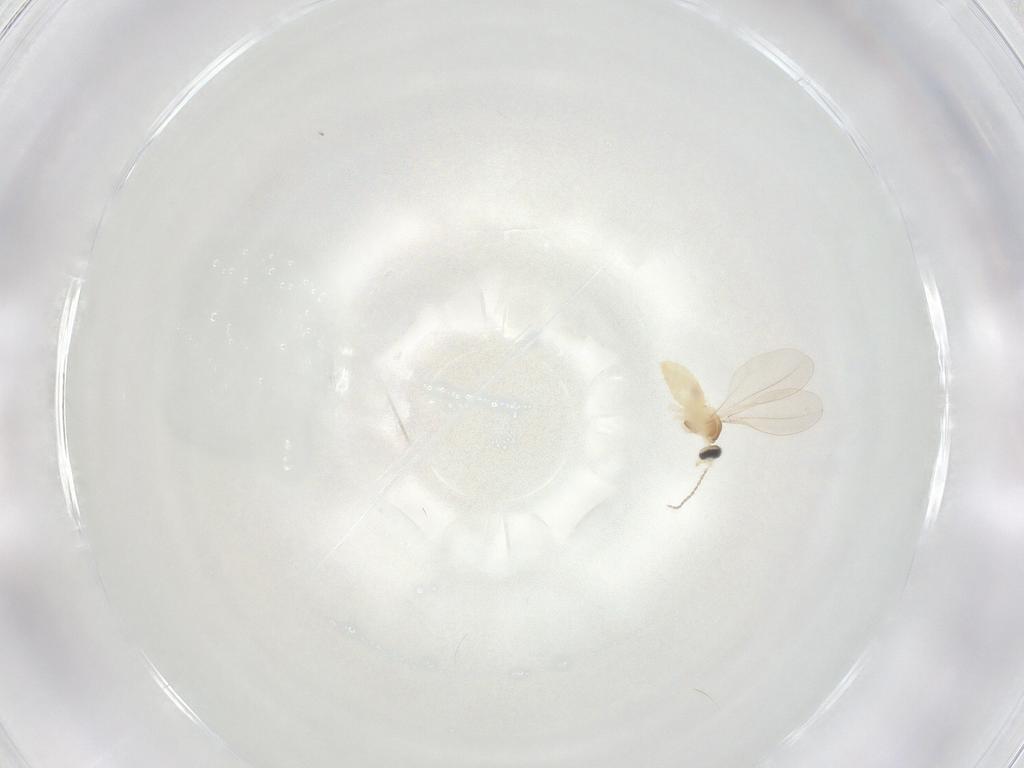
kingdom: Animalia
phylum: Arthropoda
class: Insecta
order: Diptera
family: Cecidomyiidae
